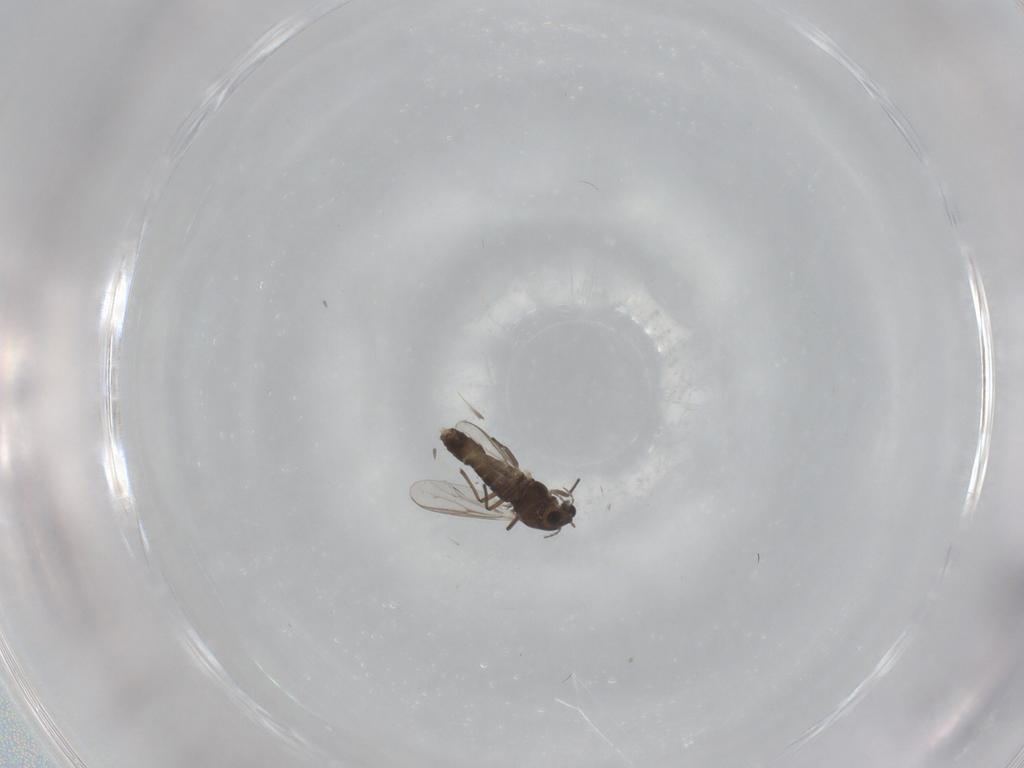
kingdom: Animalia
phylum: Arthropoda
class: Insecta
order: Diptera
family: Chironomidae
